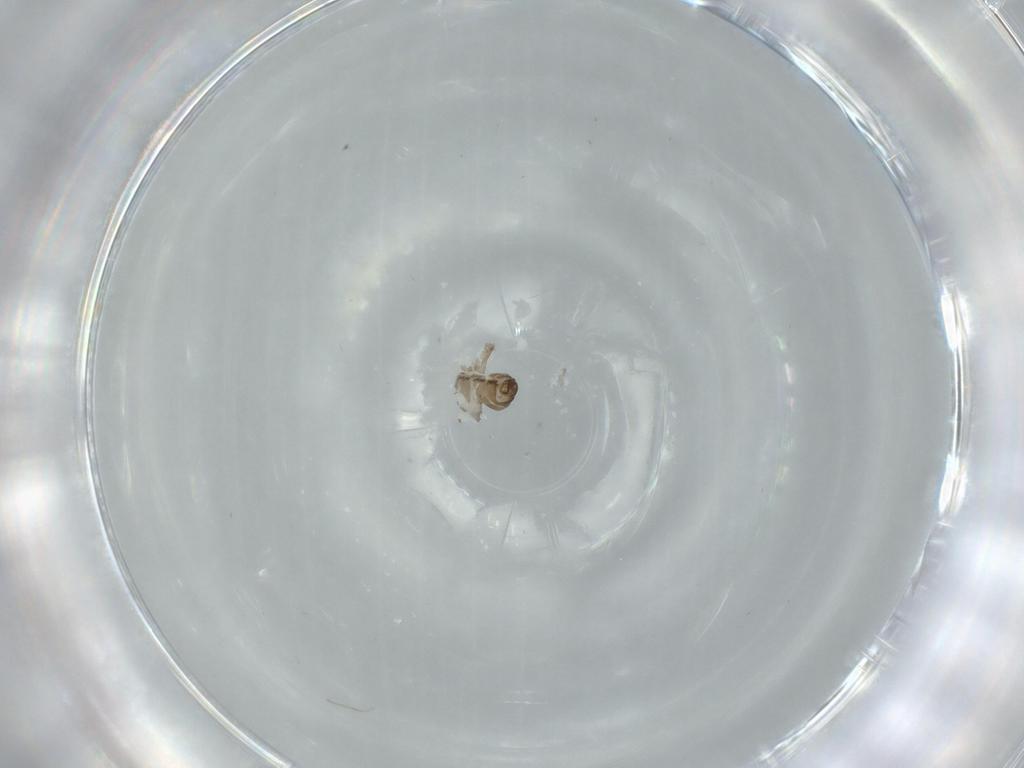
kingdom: Animalia
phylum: Arthropoda
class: Insecta
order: Diptera
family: Psychodidae
